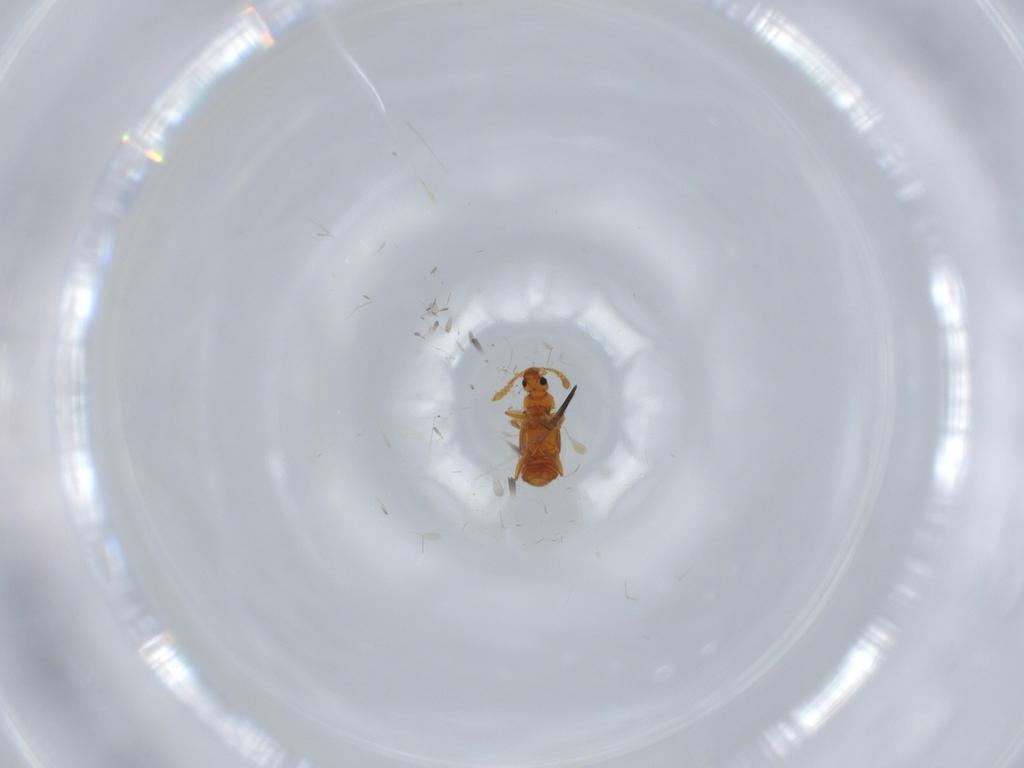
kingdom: Animalia
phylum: Arthropoda
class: Insecta
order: Coleoptera
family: Staphylinidae
